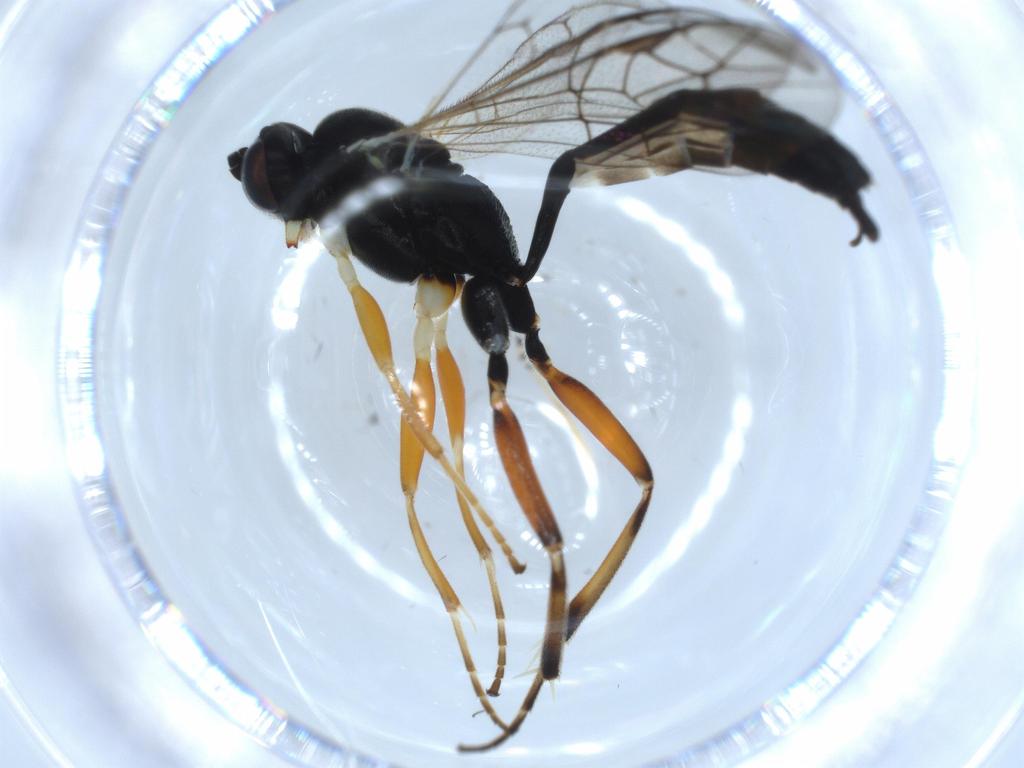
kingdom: Animalia
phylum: Arthropoda
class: Insecta
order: Hymenoptera
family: Ichneumonidae
